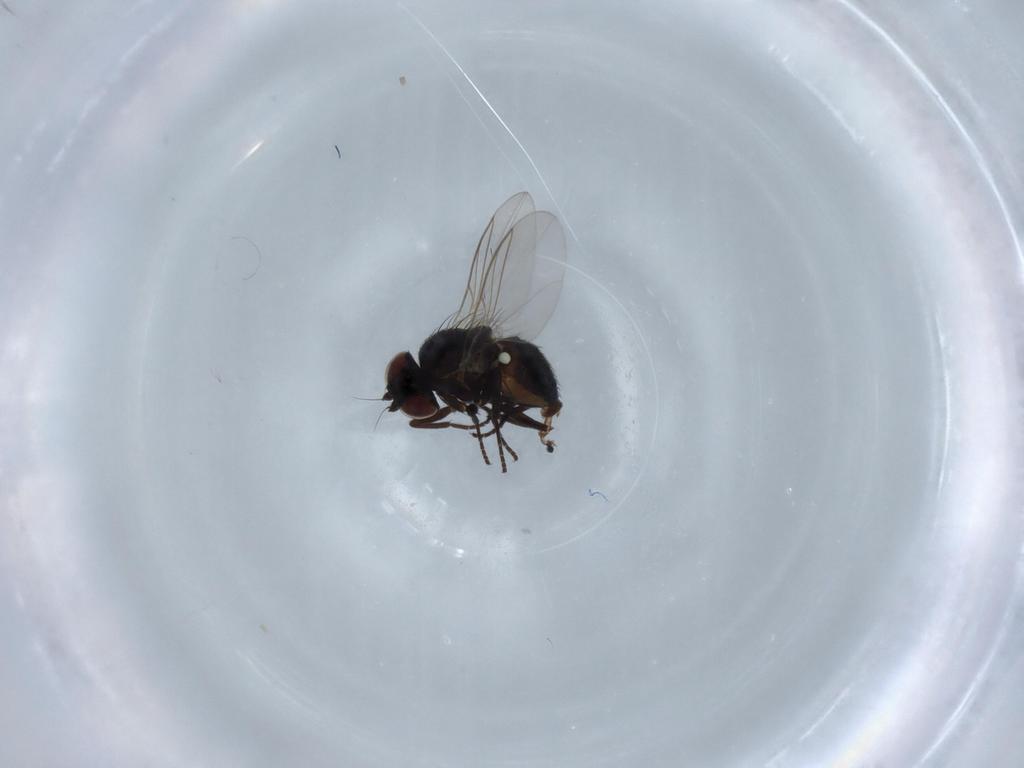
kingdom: Animalia
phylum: Arthropoda
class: Insecta
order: Diptera
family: Agromyzidae
